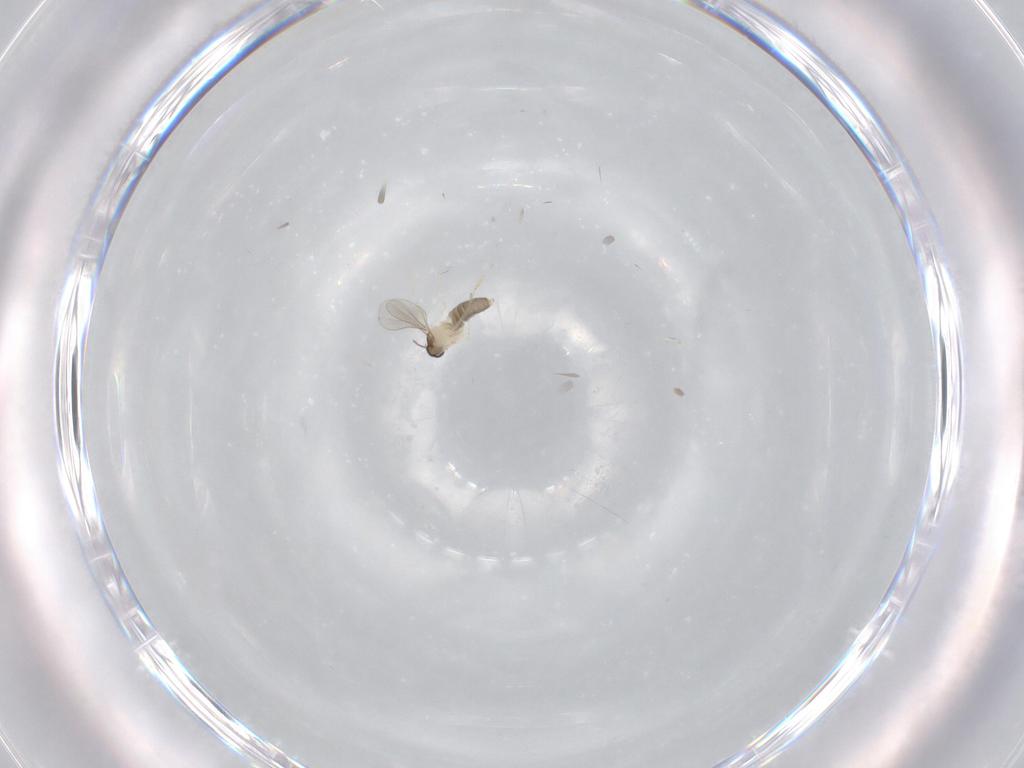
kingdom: Animalia
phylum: Arthropoda
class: Insecta
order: Diptera
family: Cecidomyiidae
